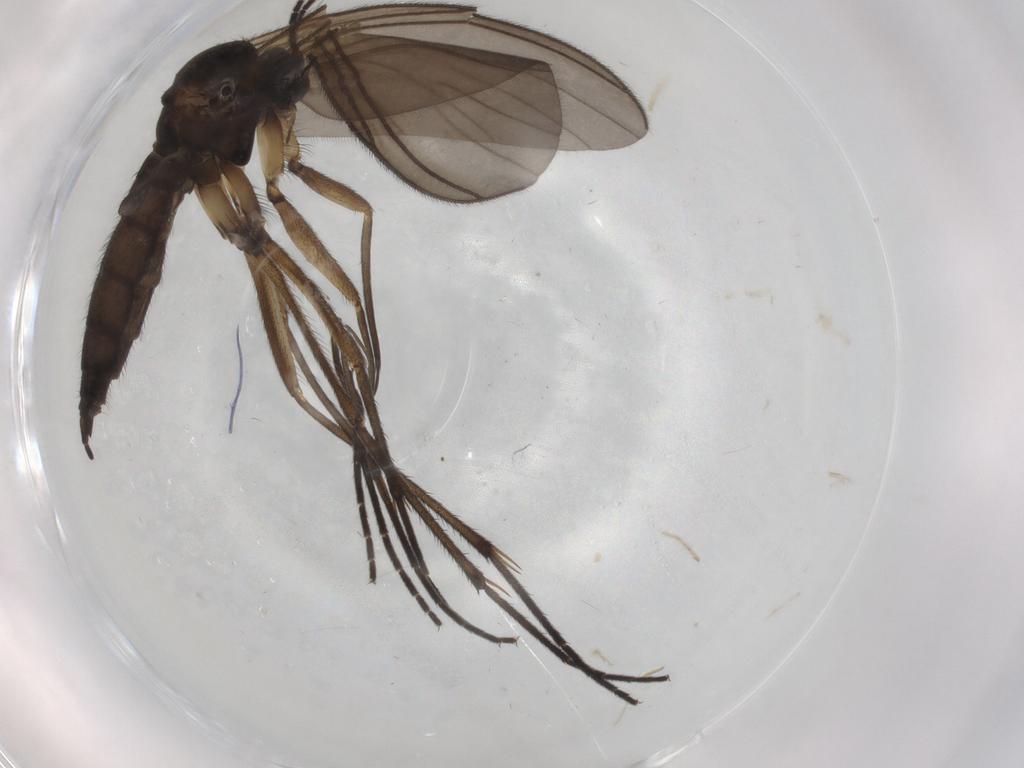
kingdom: Animalia
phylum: Arthropoda
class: Insecta
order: Diptera
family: Sciaridae
